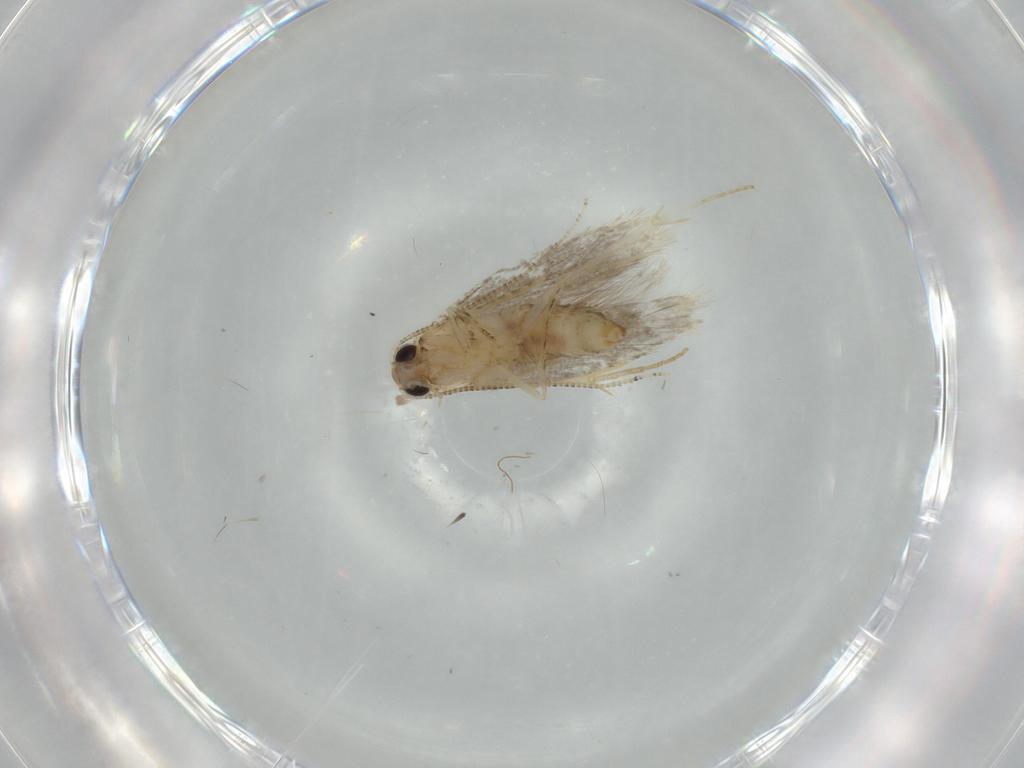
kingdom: Animalia
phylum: Arthropoda
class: Insecta
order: Lepidoptera
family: Tineidae
